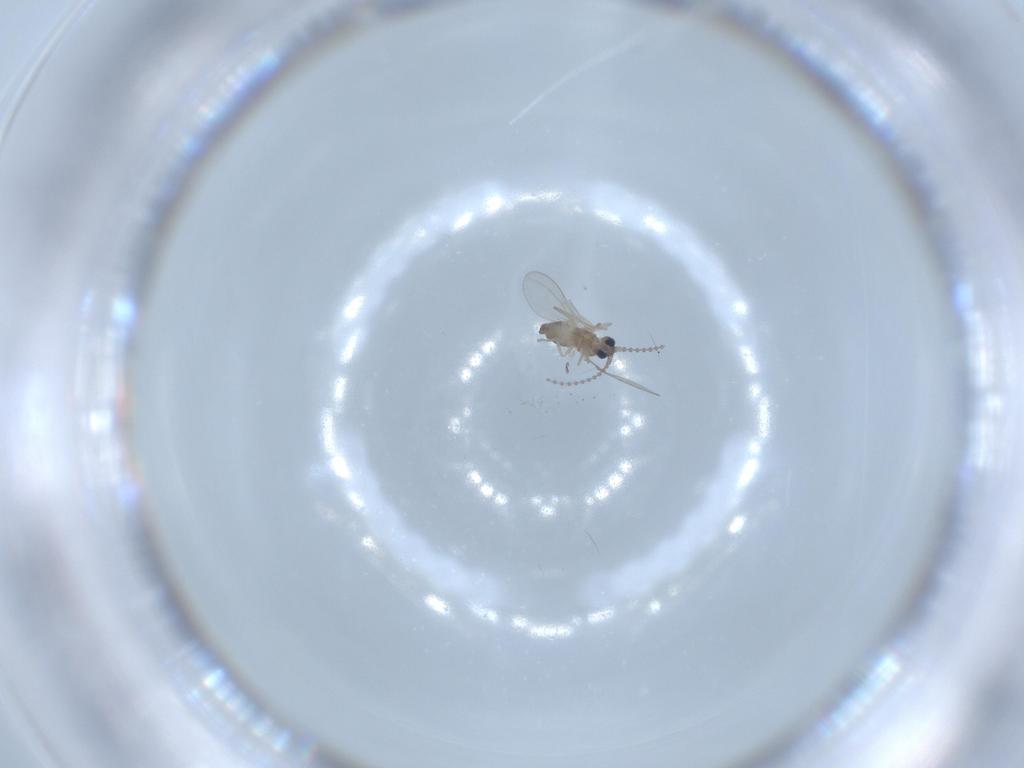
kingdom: Animalia
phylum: Arthropoda
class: Insecta
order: Diptera
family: Cecidomyiidae
